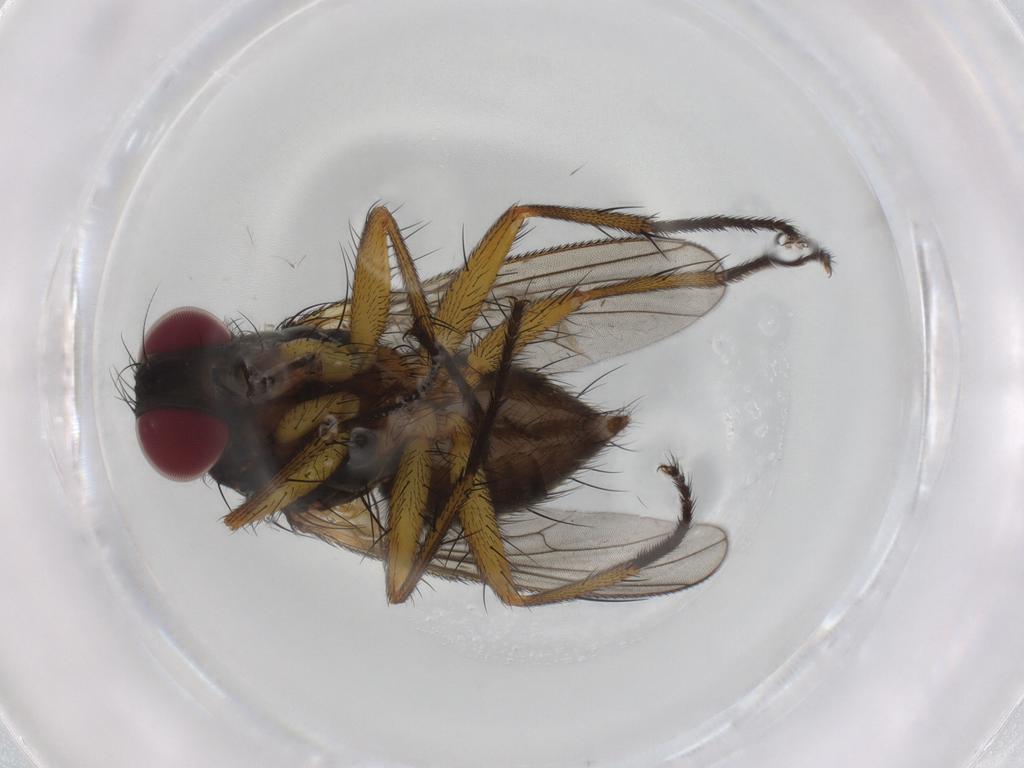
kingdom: Animalia
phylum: Arthropoda
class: Insecta
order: Diptera
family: Muscidae
